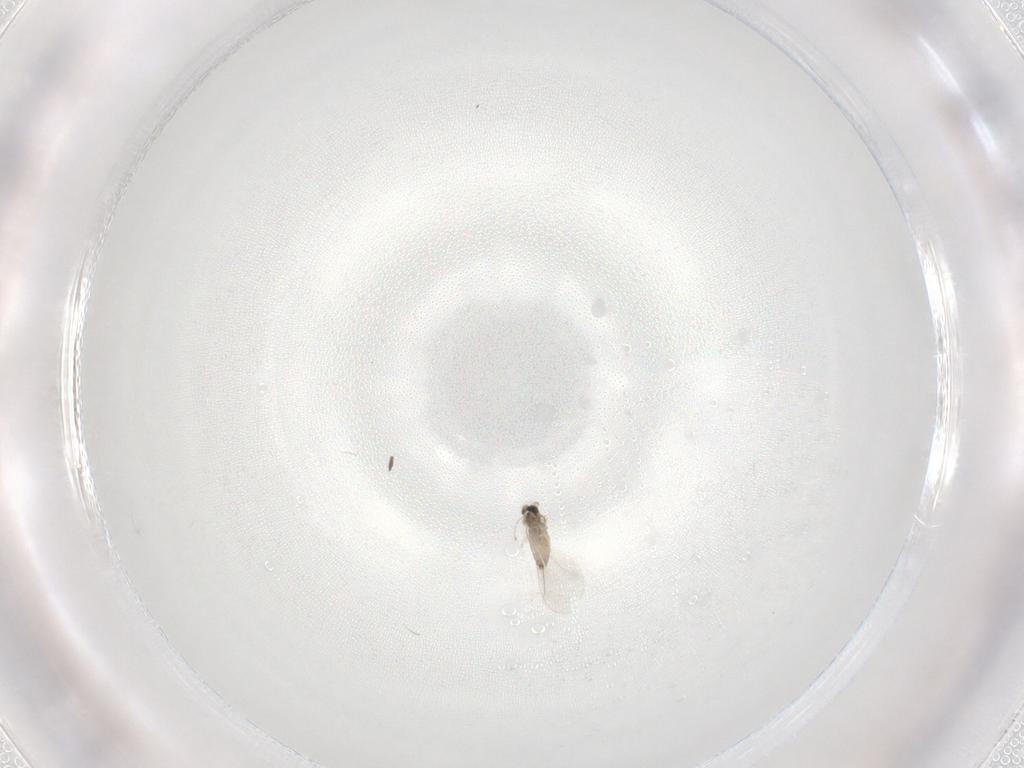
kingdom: Animalia
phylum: Arthropoda
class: Insecta
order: Diptera
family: Cecidomyiidae
